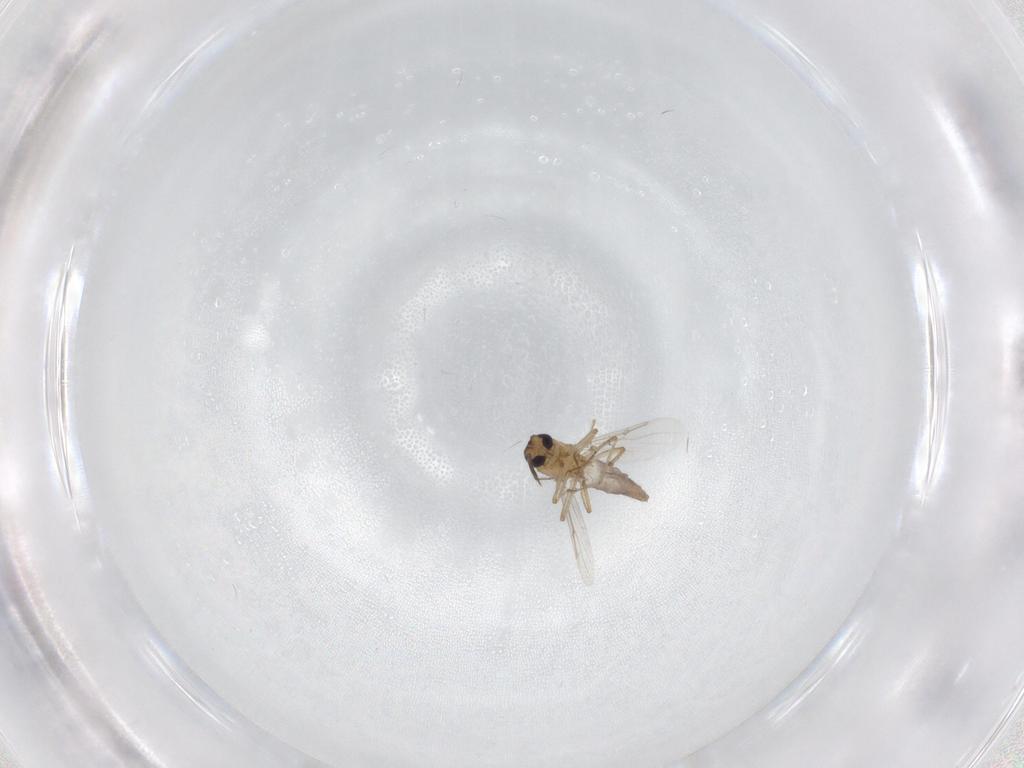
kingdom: Animalia
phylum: Arthropoda
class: Insecta
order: Diptera
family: Ceratopogonidae
